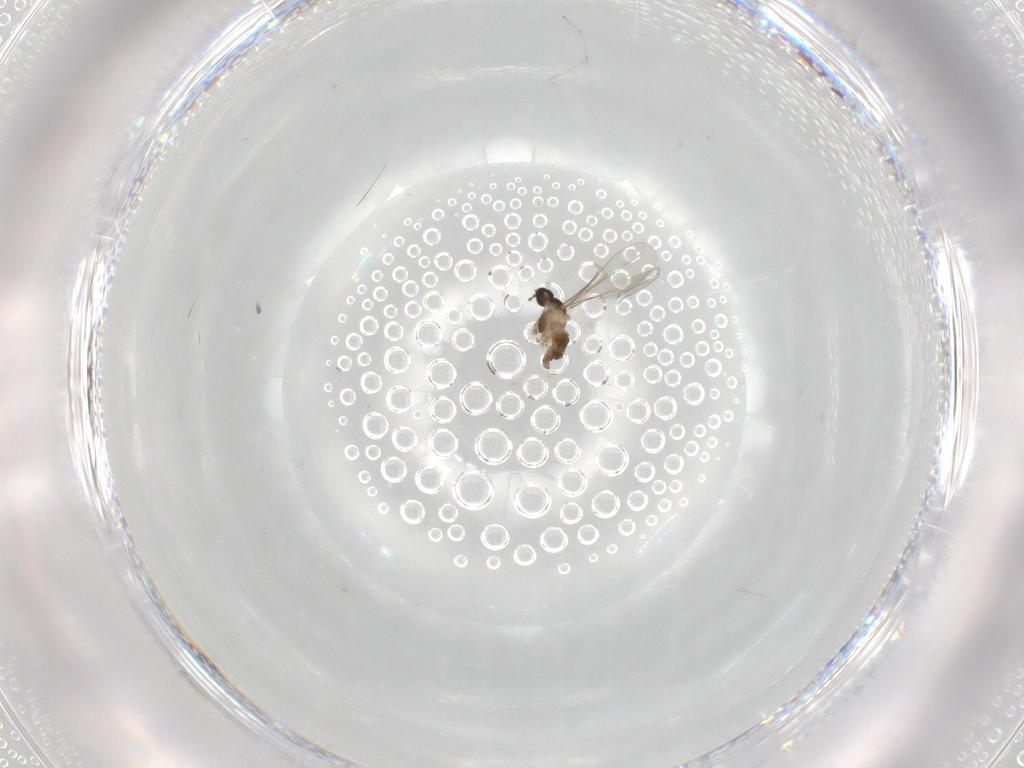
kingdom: Animalia
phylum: Arthropoda
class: Insecta
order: Diptera
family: Cecidomyiidae
